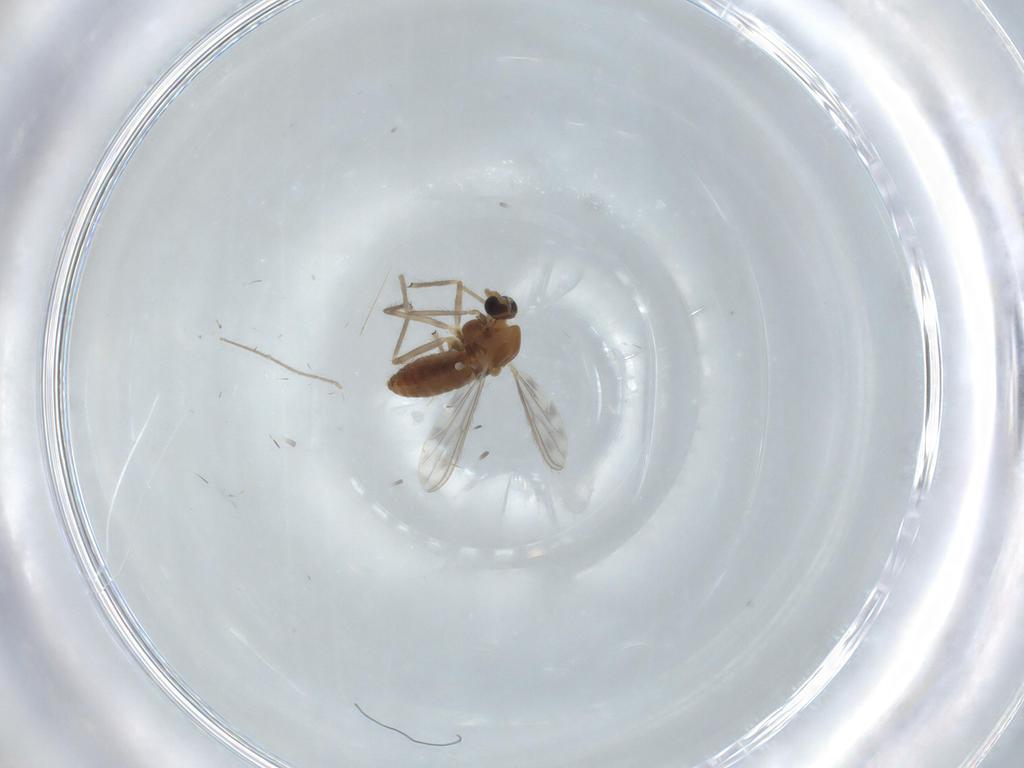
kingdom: Animalia
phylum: Arthropoda
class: Insecta
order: Diptera
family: Chironomidae
